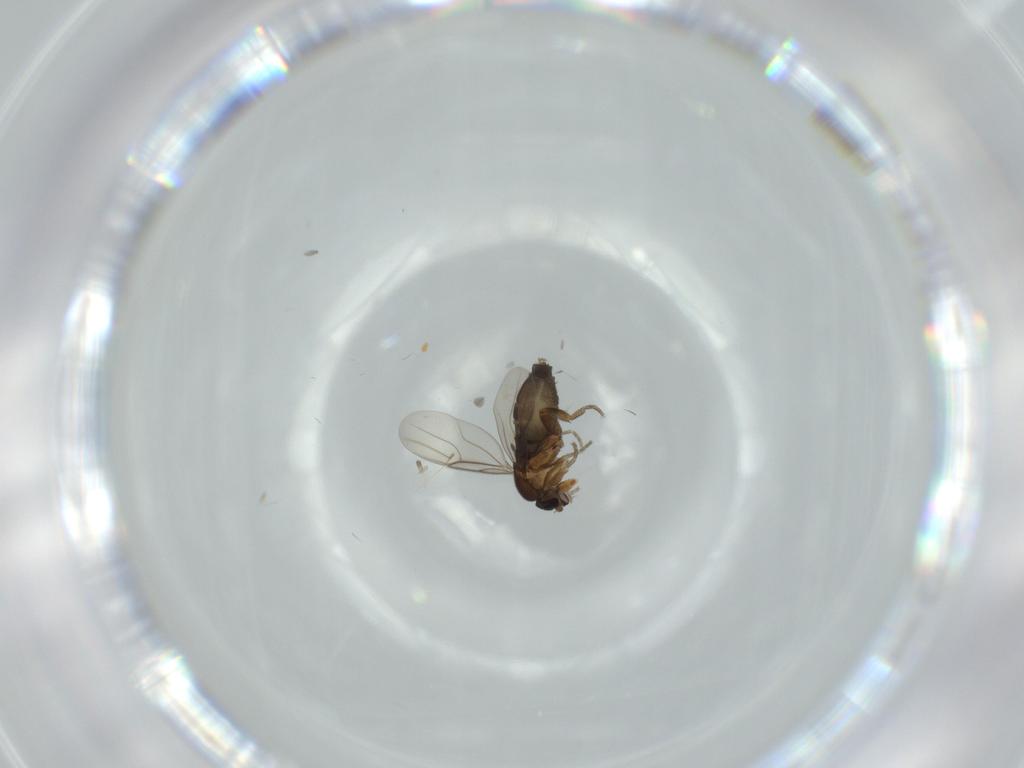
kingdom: Animalia
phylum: Arthropoda
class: Insecta
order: Diptera
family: Phoridae
